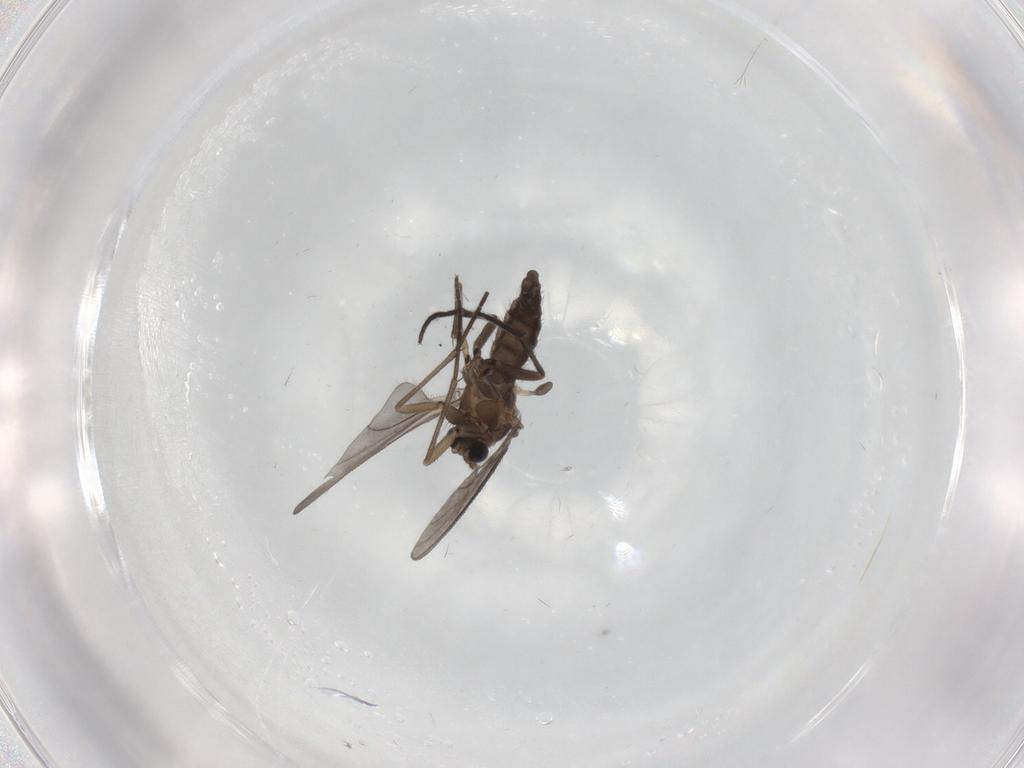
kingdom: Animalia
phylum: Arthropoda
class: Insecta
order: Diptera
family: Sciaridae
